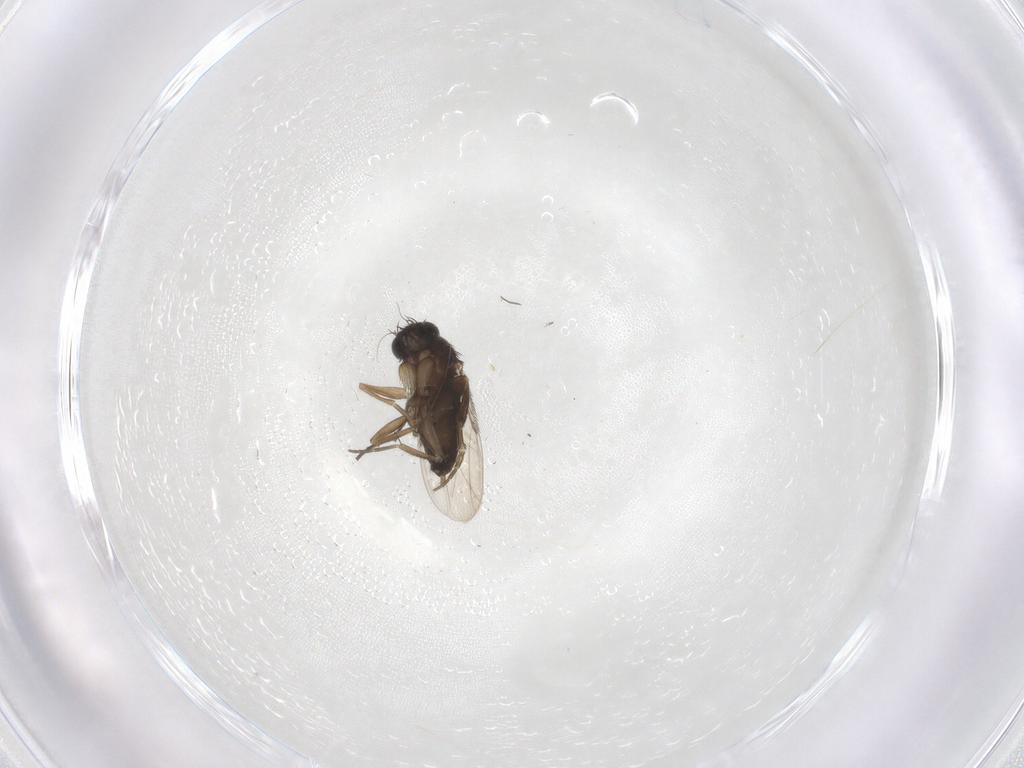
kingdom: Animalia
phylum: Arthropoda
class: Insecta
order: Diptera
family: Phoridae
